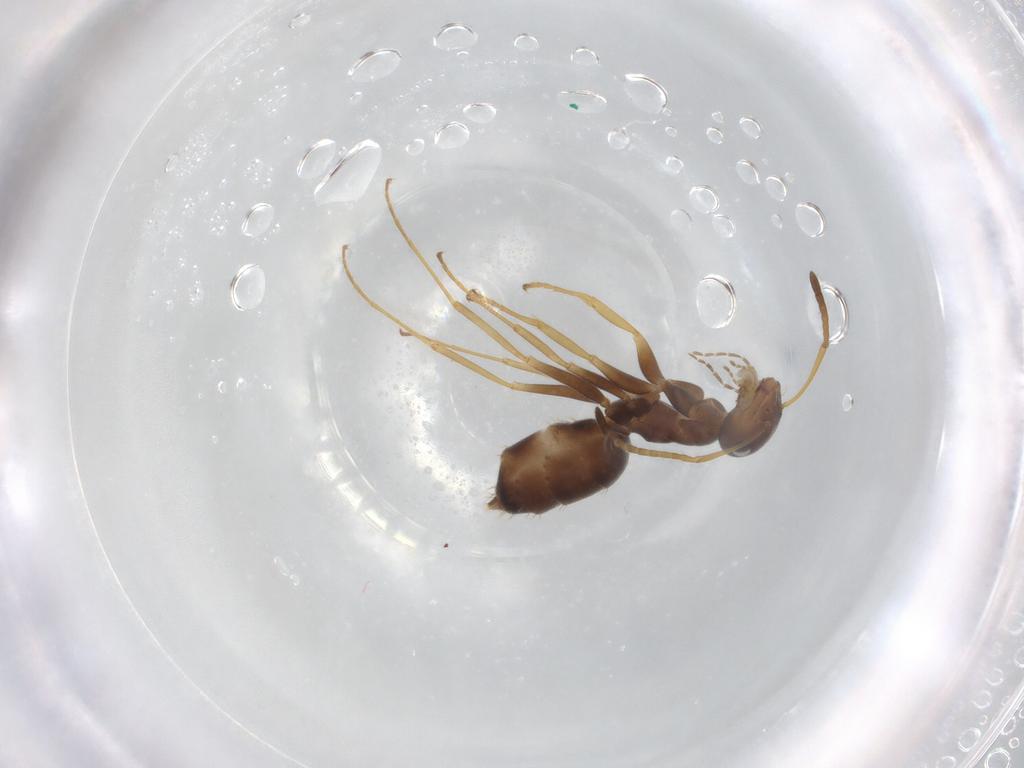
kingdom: Animalia
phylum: Arthropoda
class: Insecta
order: Hymenoptera
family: Formicidae
